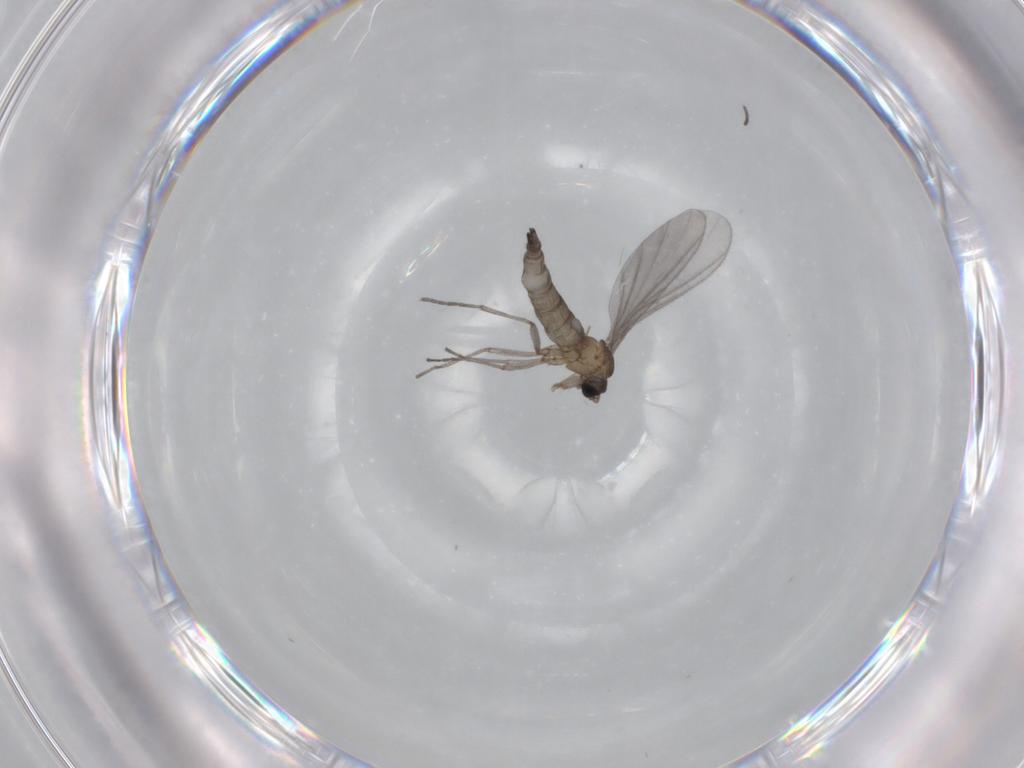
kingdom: Animalia
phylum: Arthropoda
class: Insecta
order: Diptera
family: Sciaridae
